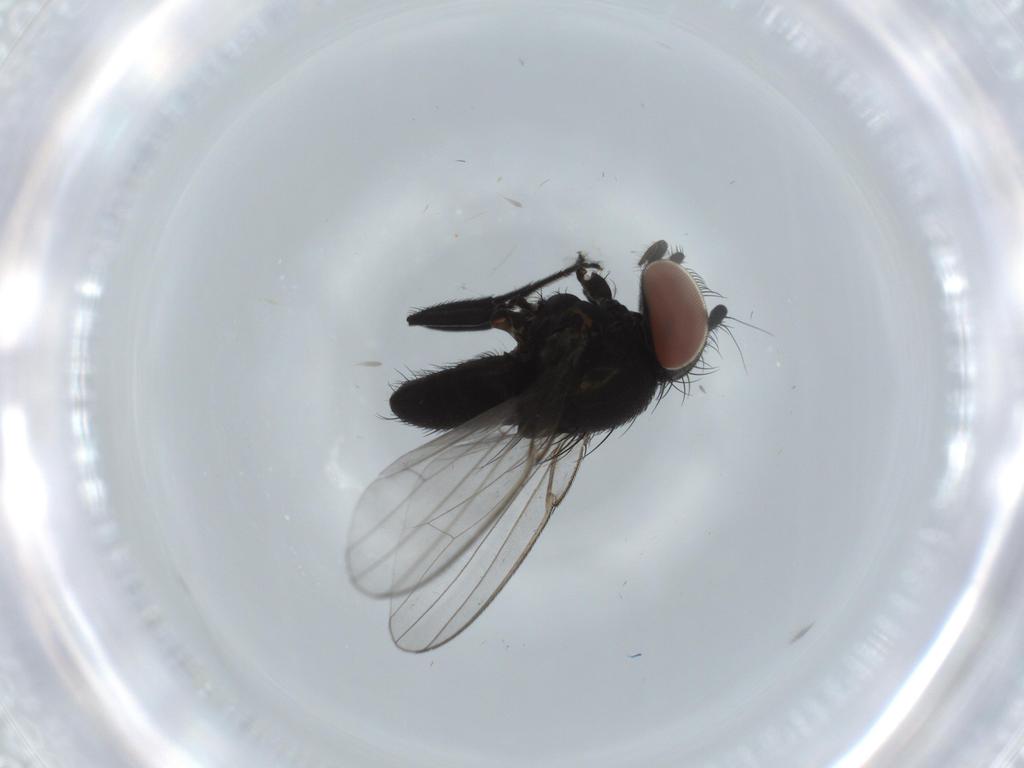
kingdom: Animalia
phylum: Arthropoda
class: Insecta
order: Diptera
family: Milichiidae
